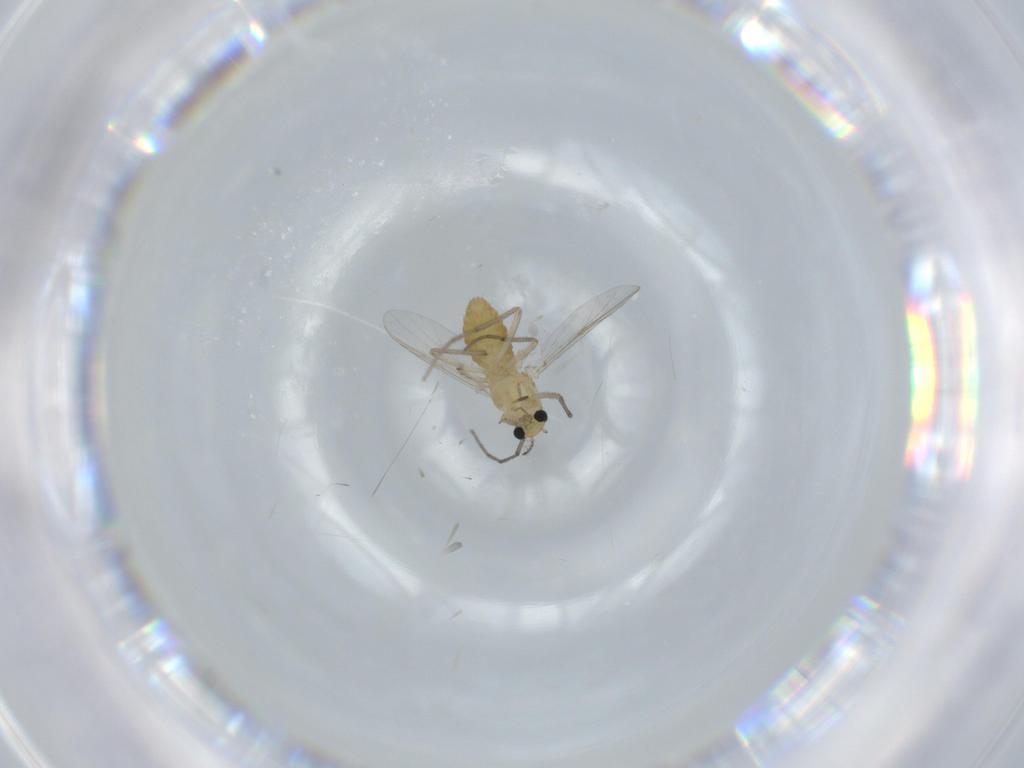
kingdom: Animalia
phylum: Arthropoda
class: Insecta
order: Diptera
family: Chironomidae
